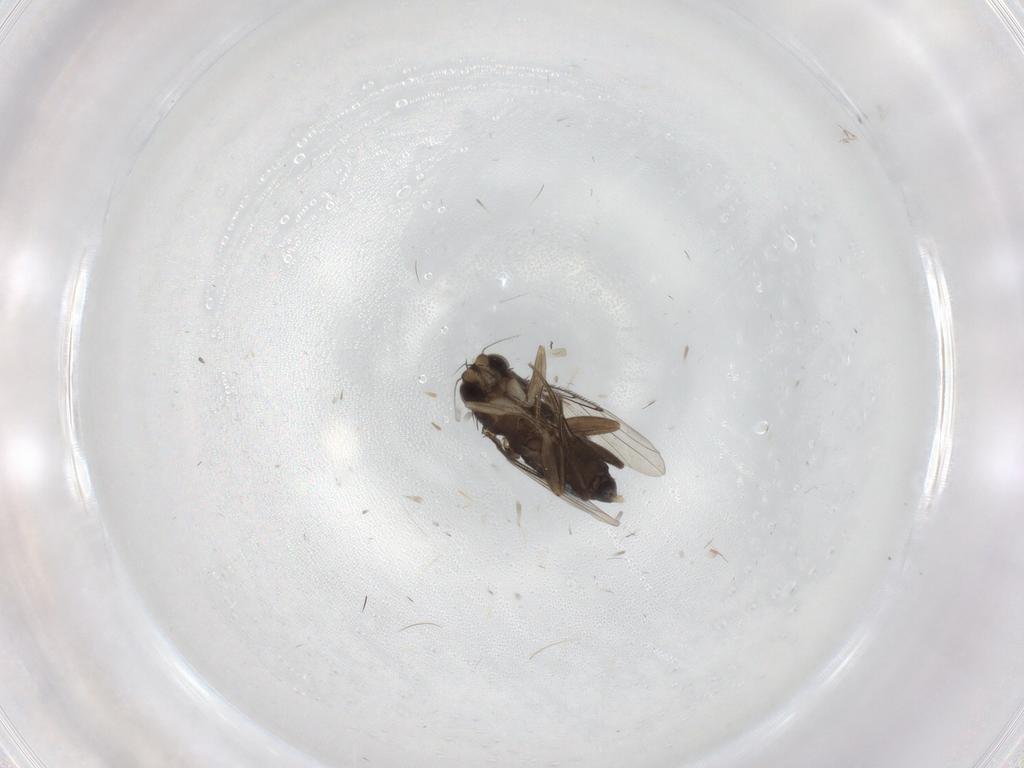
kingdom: Animalia
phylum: Arthropoda
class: Insecta
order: Diptera
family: Phoridae
